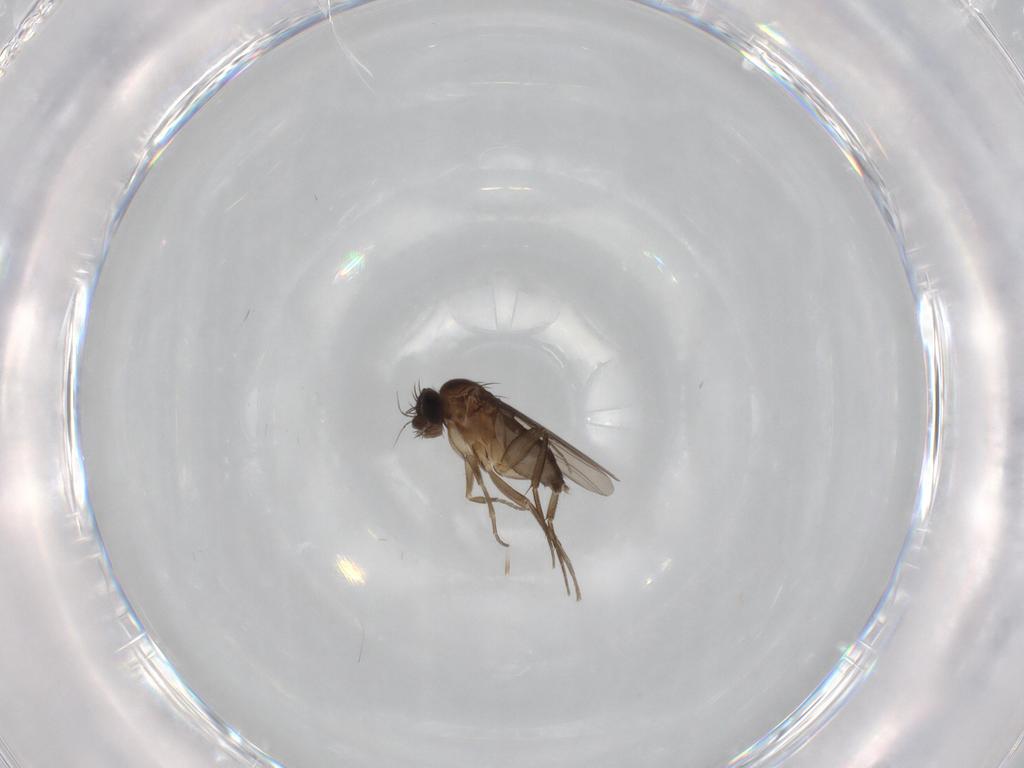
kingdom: Animalia
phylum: Arthropoda
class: Insecta
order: Diptera
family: Phoridae
